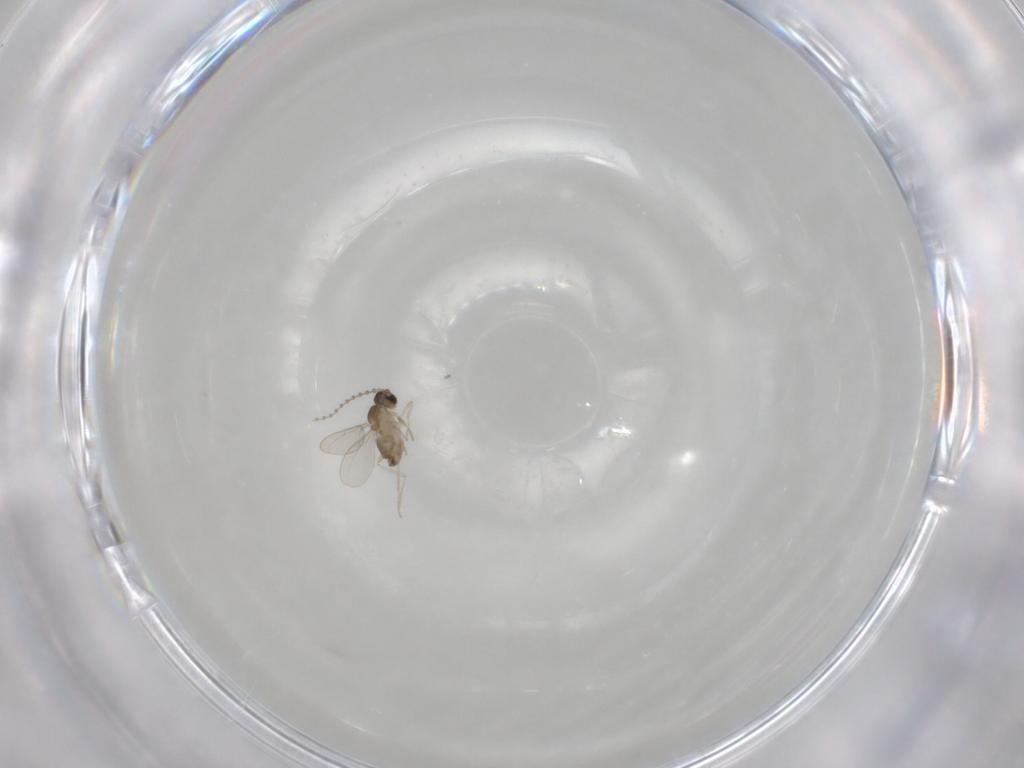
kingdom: Animalia
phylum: Arthropoda
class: Insecta
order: Diptera
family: Cecidomyiidae
